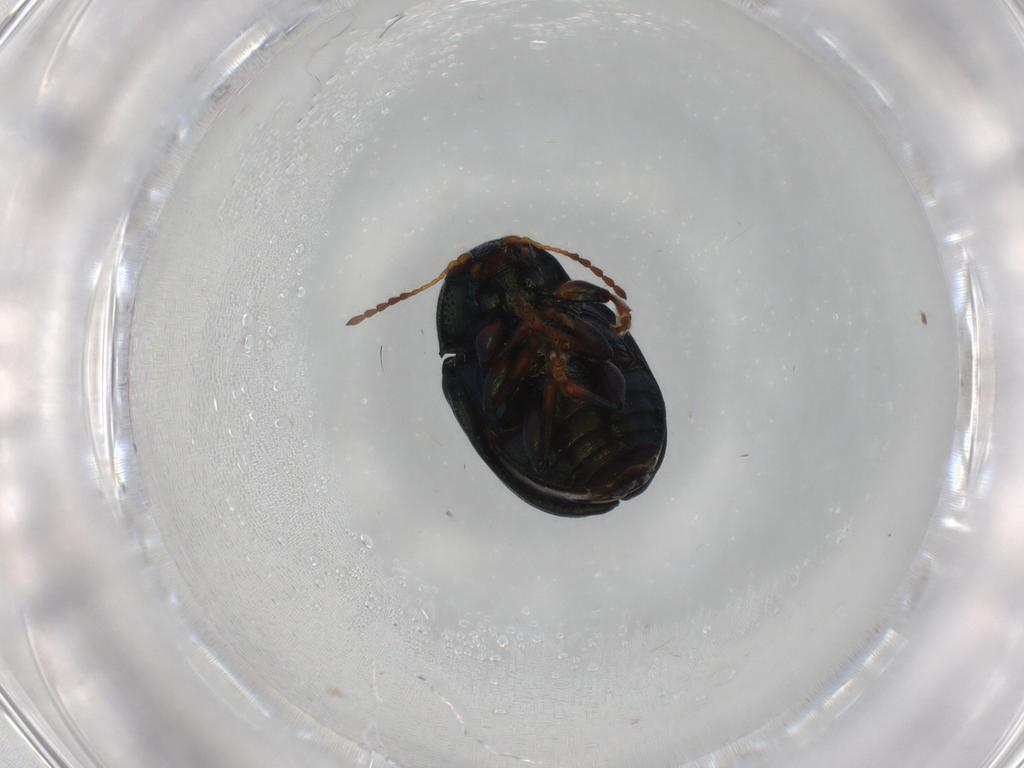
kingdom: Animalia
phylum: Arthropoda
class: Insecta
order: Coleoptera
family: Chrysomelidae
